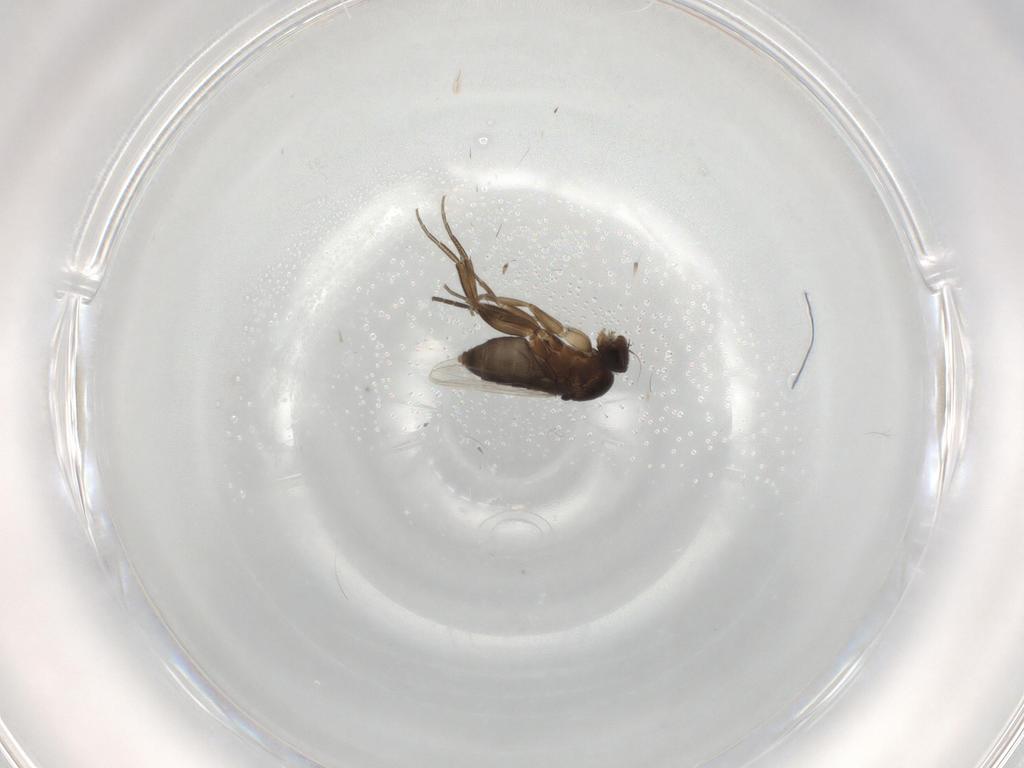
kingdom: Animalia
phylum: Arthropoda
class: Insecta
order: Diptera
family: Phoridae
